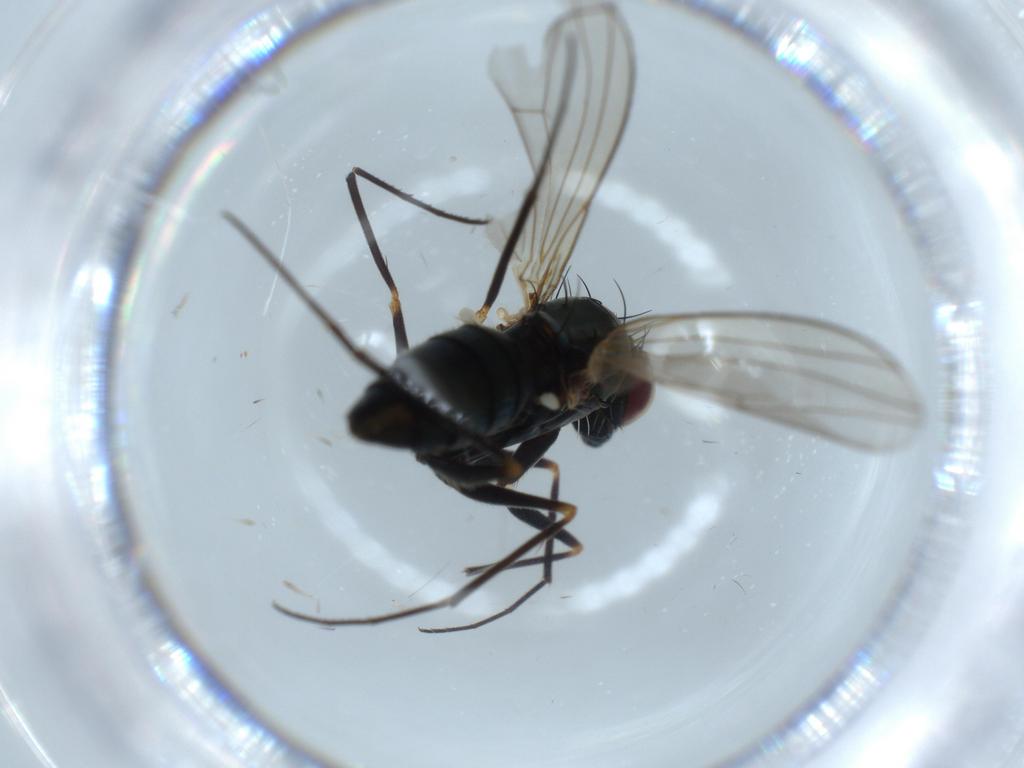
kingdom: Animalia
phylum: Arthropoda
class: Insecta
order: Diptera
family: Dolichopodidae
